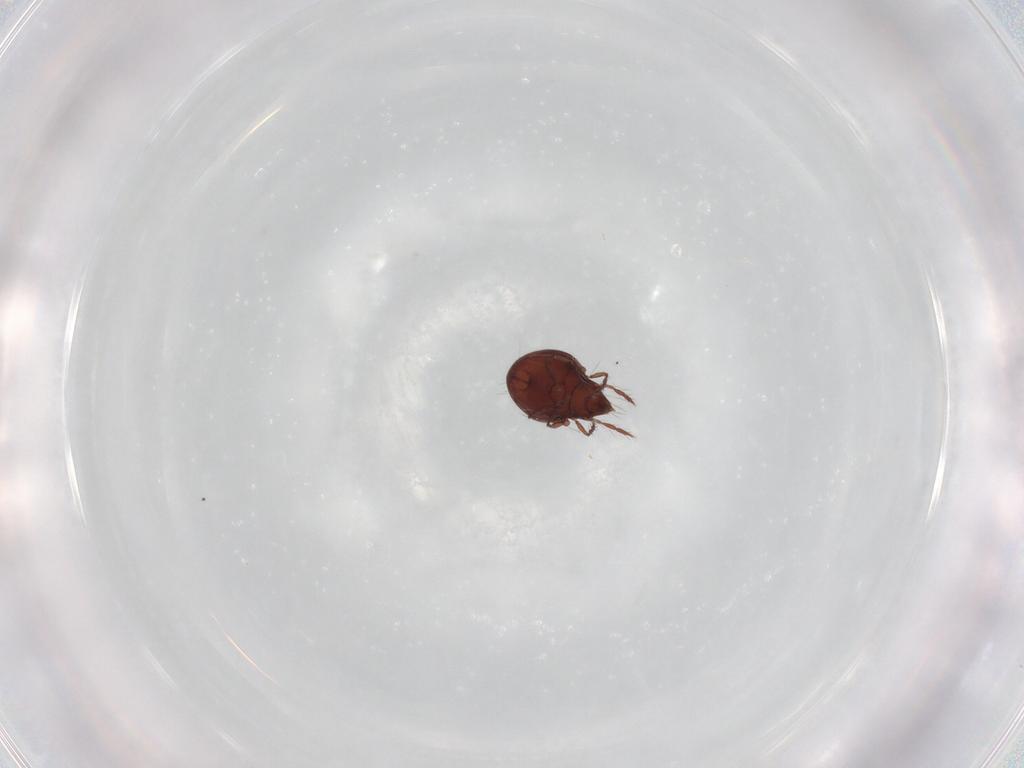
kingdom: Animalia
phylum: Arthropoda
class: Arachnida
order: Sarcoptiformes
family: Ceratoppiidae
